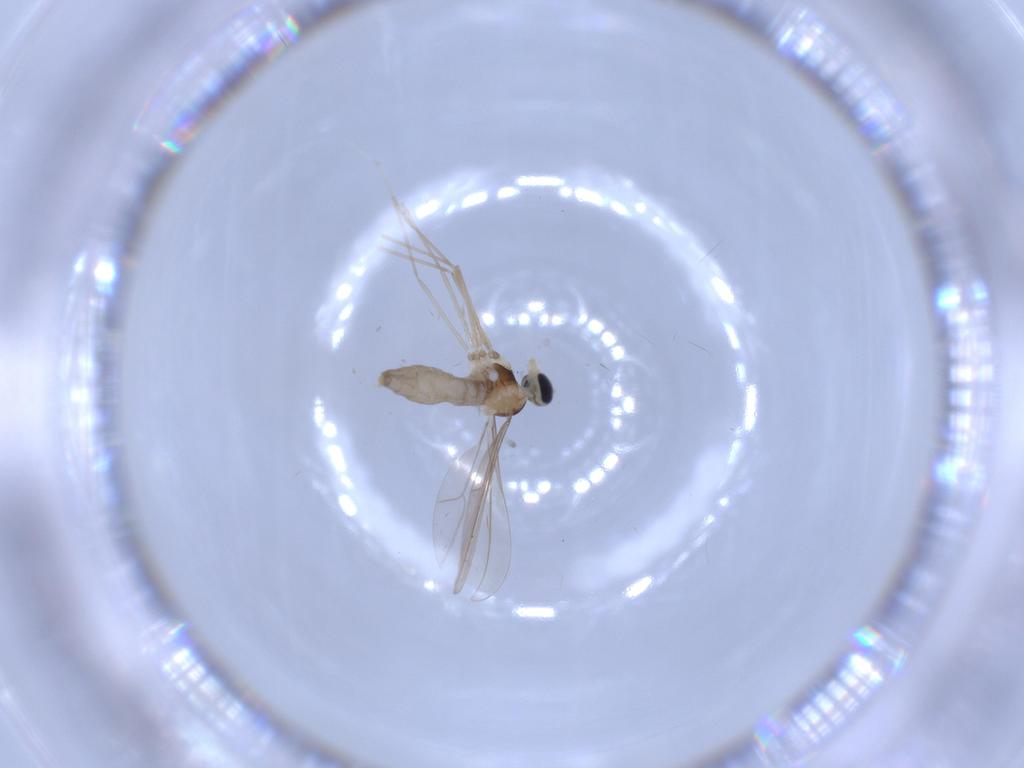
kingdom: Animalia
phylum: Arthropoda
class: Insecta
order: Diptera
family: Cecidomyiidae
